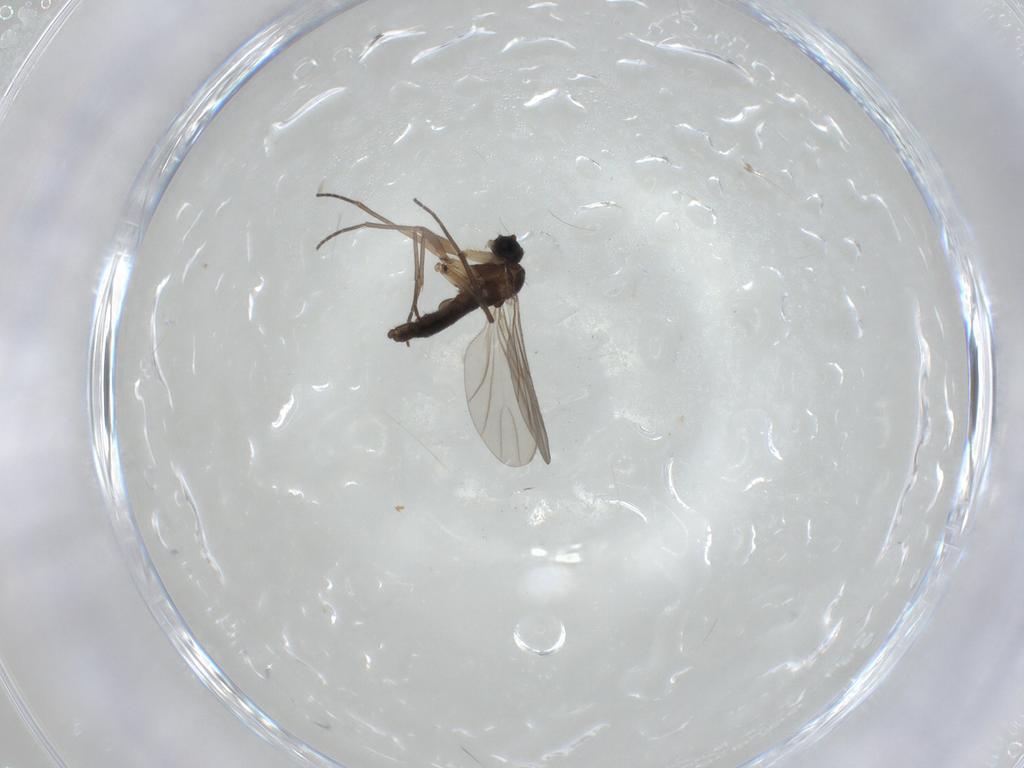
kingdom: Animalia
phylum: Arthropoda
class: Insecta
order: Diptera
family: Sciaridae
